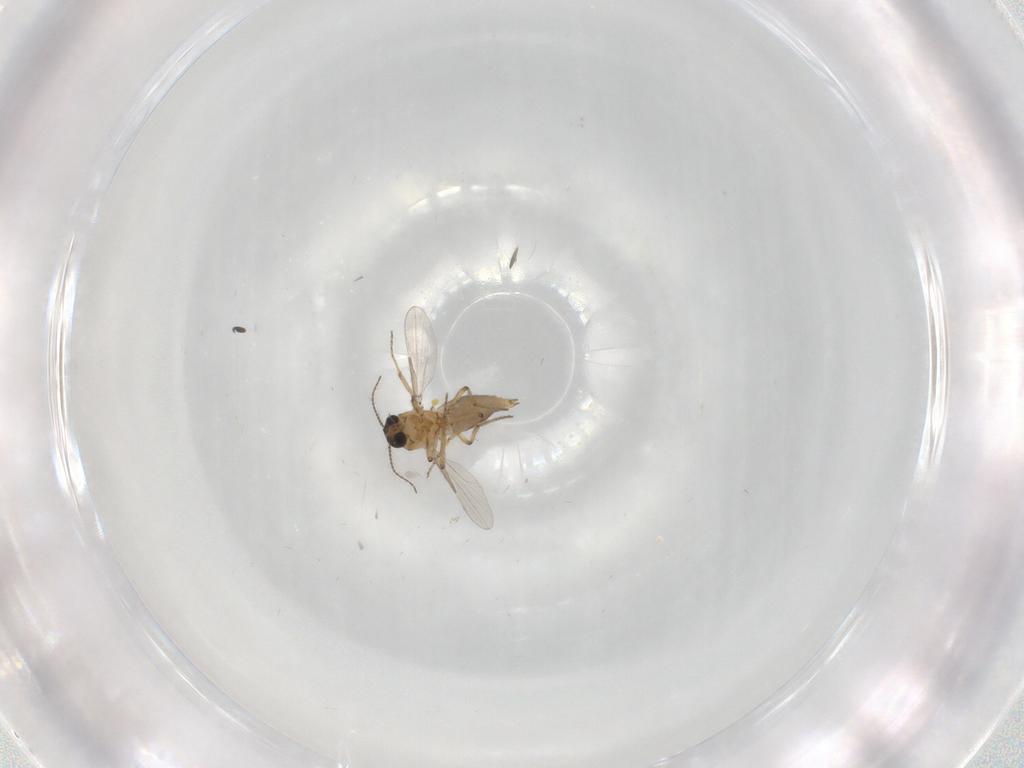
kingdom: Animalia
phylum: Arthropoda
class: Insecta
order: Diptera
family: Ceratopogonidae
